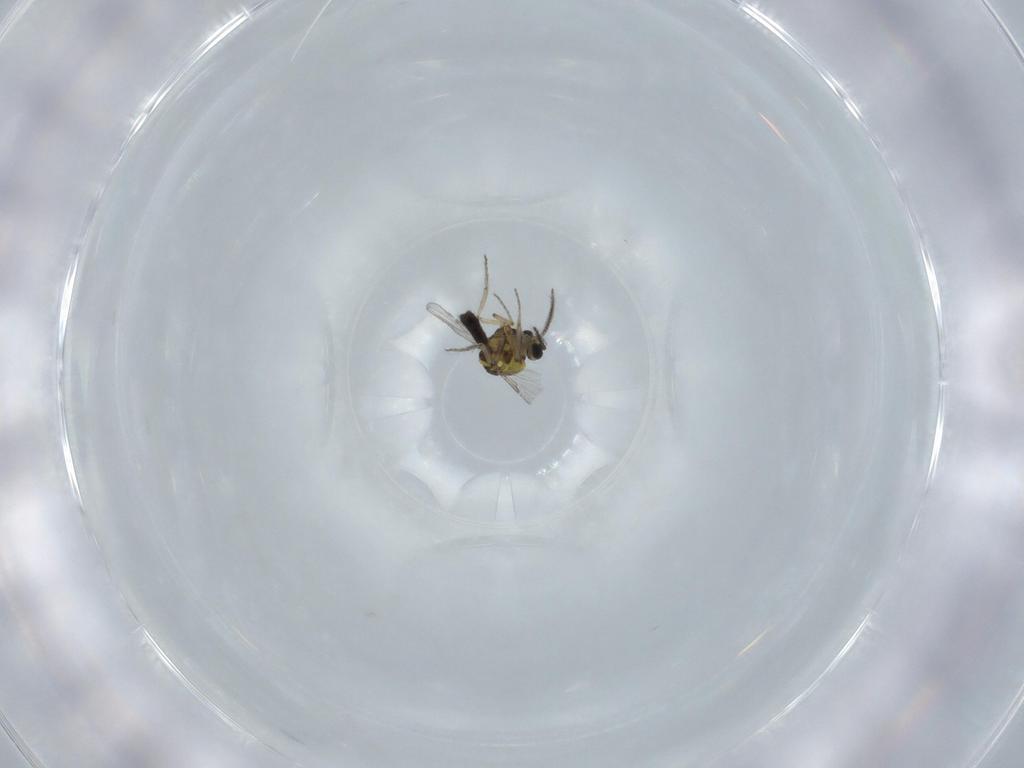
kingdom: Animalia
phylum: Arthropoda
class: Insecta
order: Diptera
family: Ceratopogonidae
